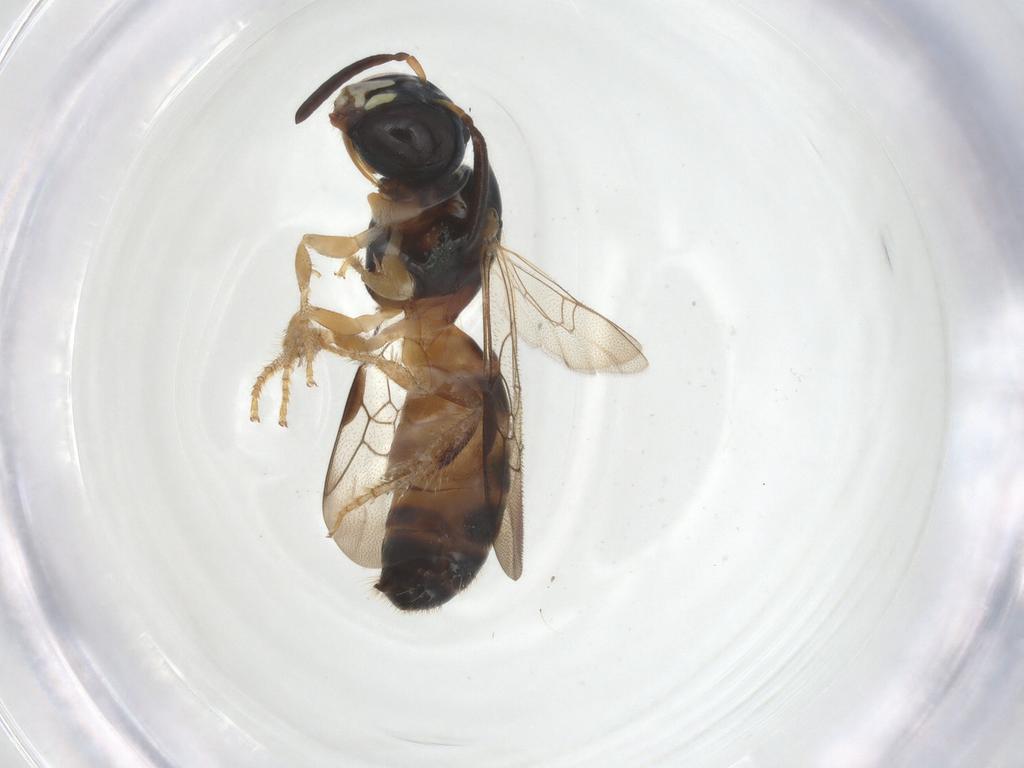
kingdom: Animalia
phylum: Arthropoda
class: Insecta
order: Hymenoptera
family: Apidae
